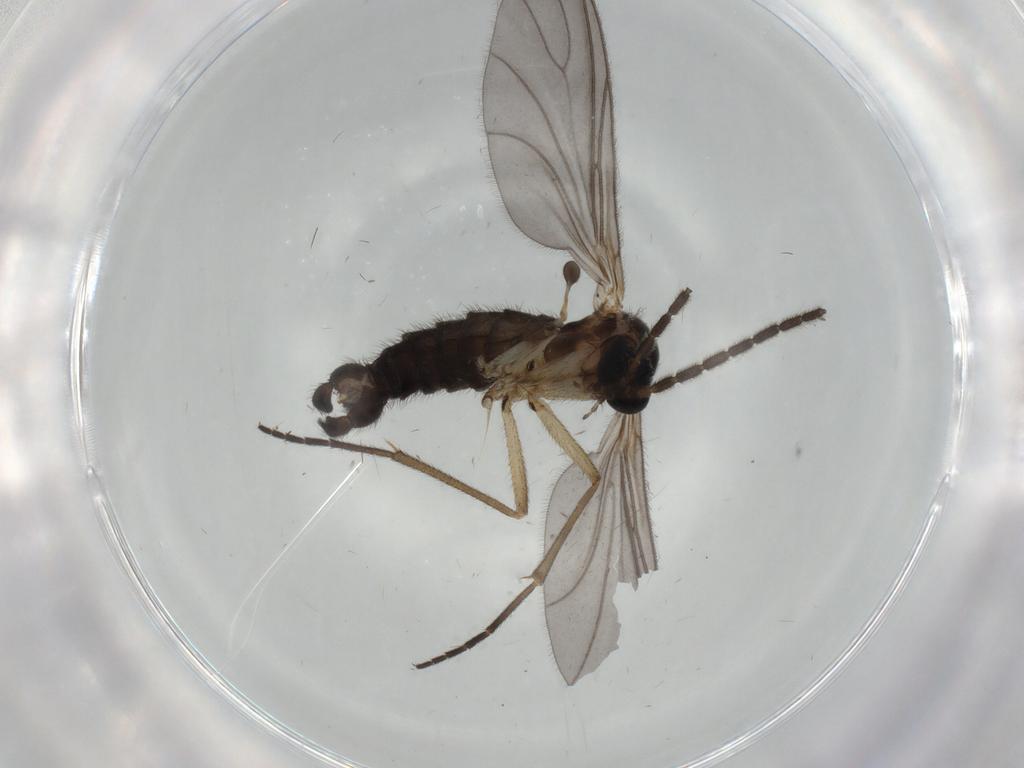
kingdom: Animalia
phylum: Arthropoda
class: Insecta
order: Diptera
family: Sciaridae
